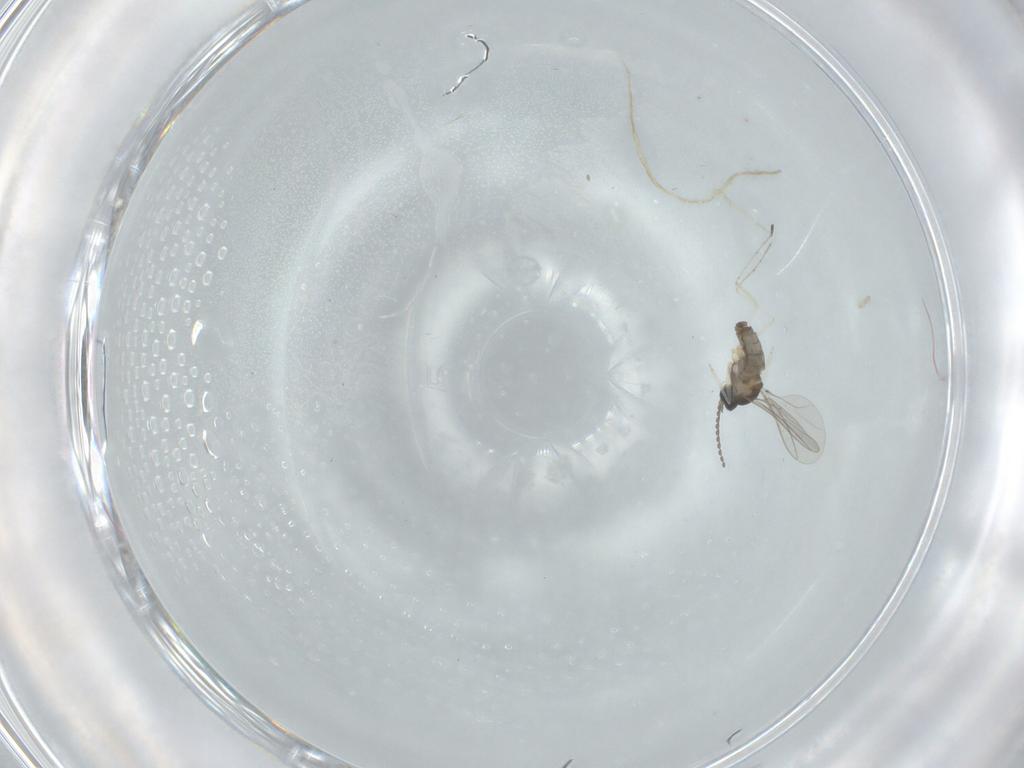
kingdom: Animalia
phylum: Arthropoda
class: Insecta
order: Diptera
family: Cecidomyiidae
